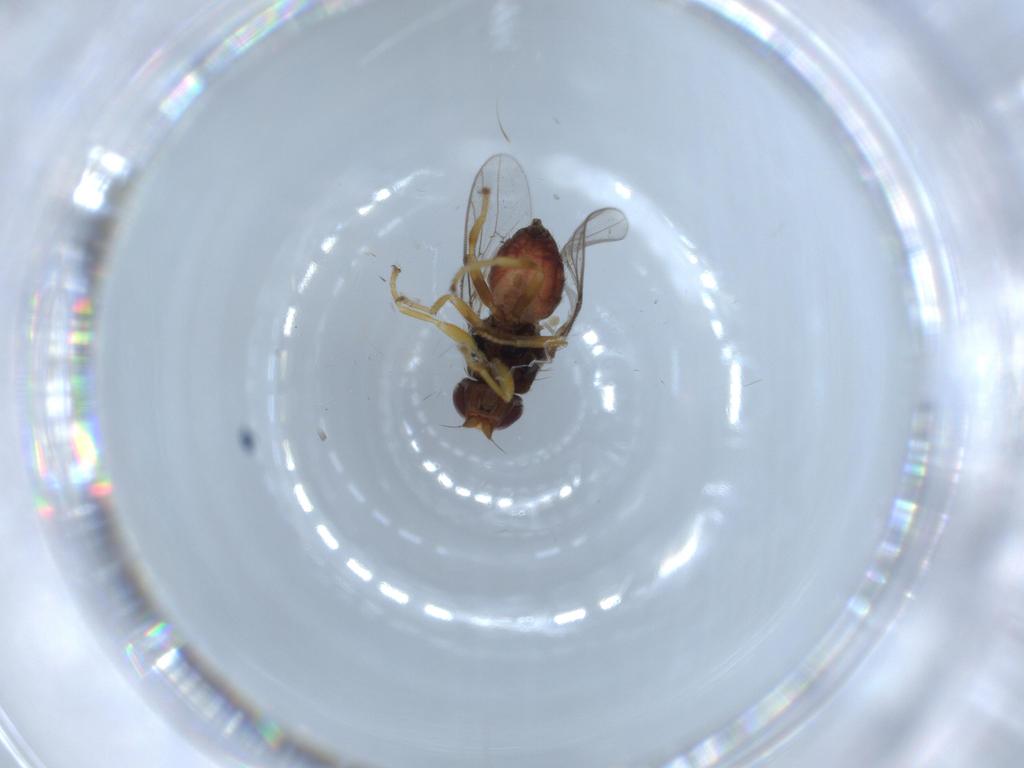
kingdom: Animalia
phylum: Arthropoda
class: Insecta
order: Diptera
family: Chloropidae
